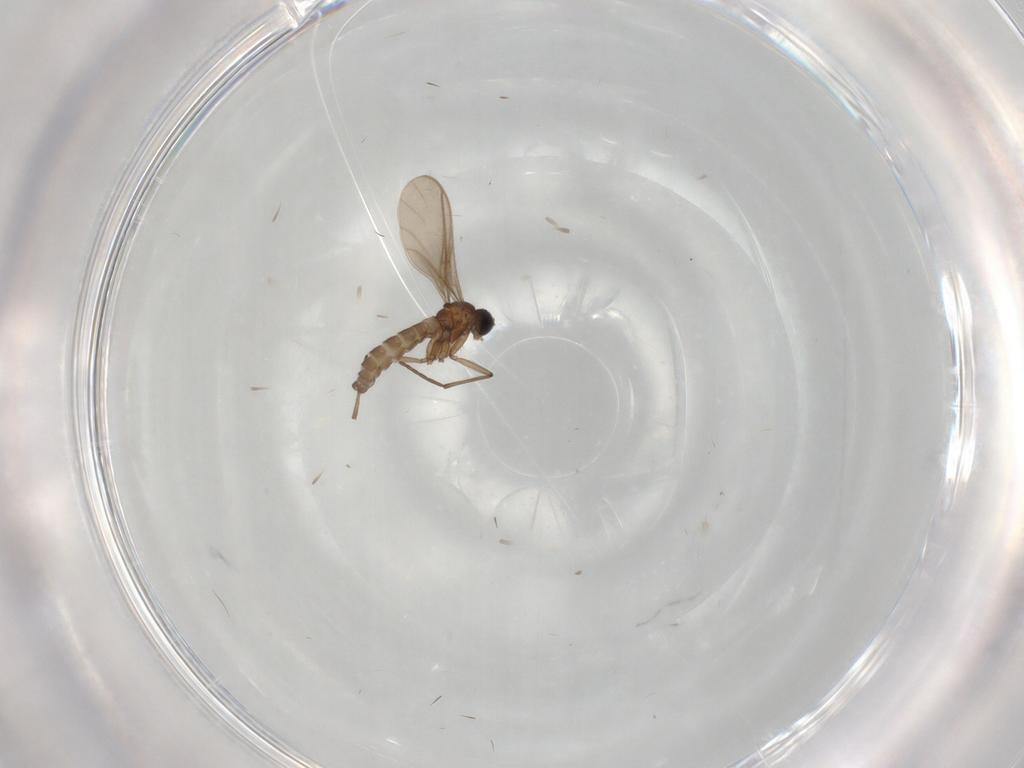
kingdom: Animalia
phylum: Arthropoda
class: Insecta
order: Diptera
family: Sciaridae
